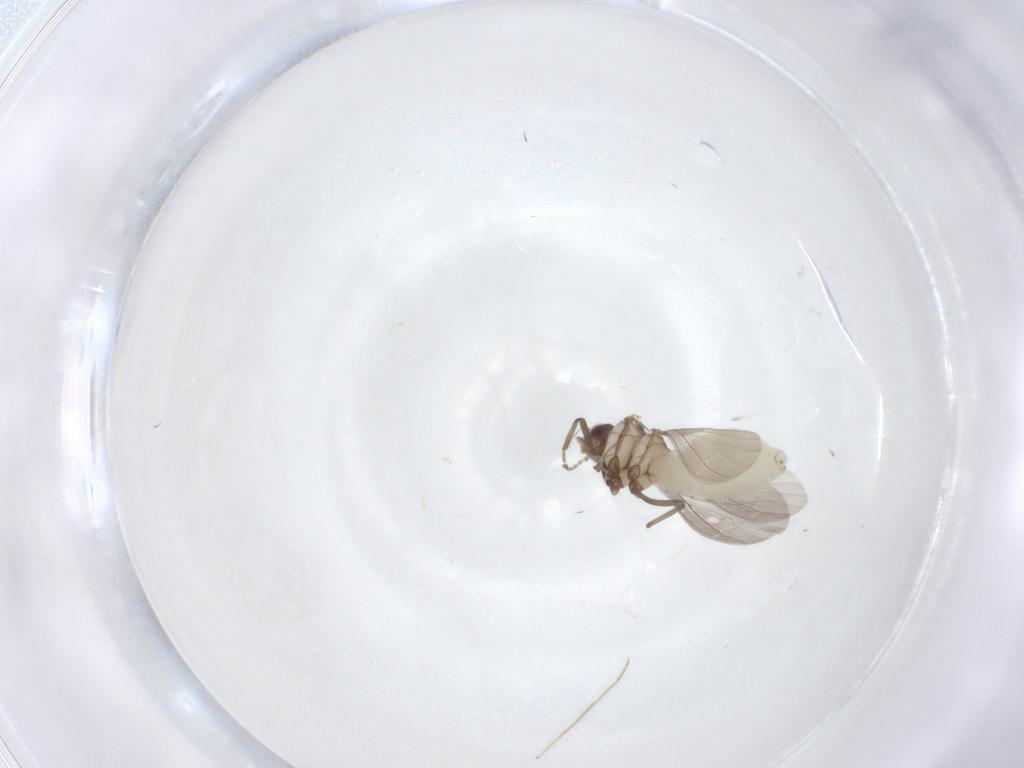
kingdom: Animalia
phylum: Arthropoda
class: Insecta
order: Neuroptera
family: Coniopterygidae
